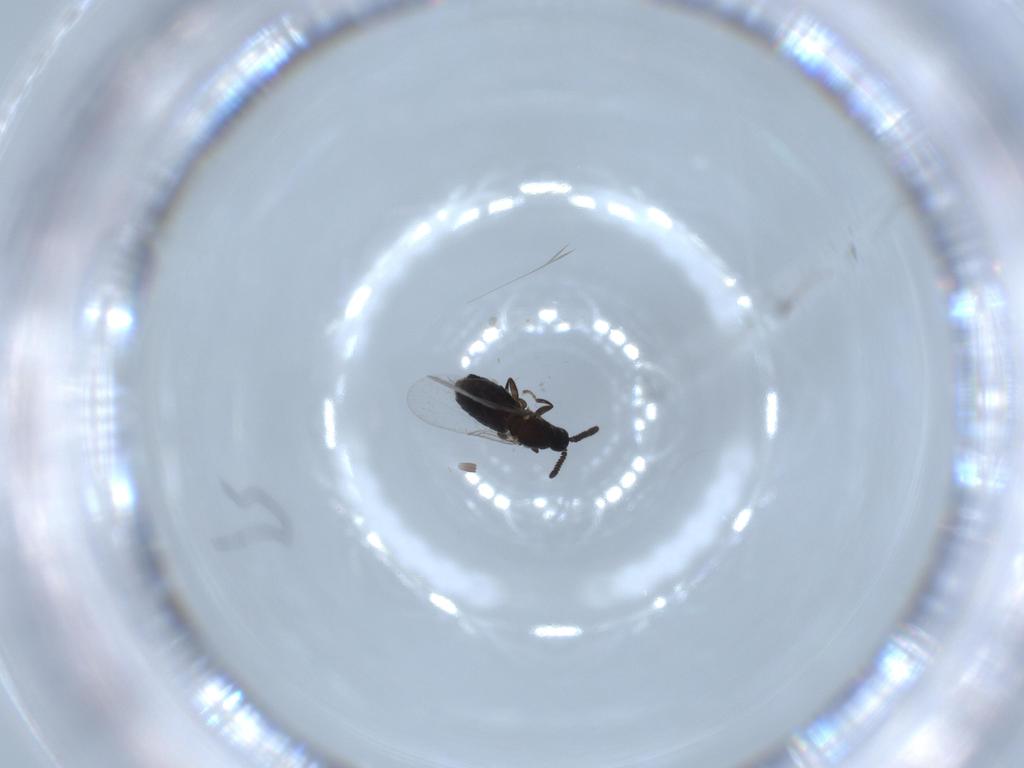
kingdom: Animalia
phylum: Arthropoda
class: Insecta
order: Diptera
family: Scatopsidae
